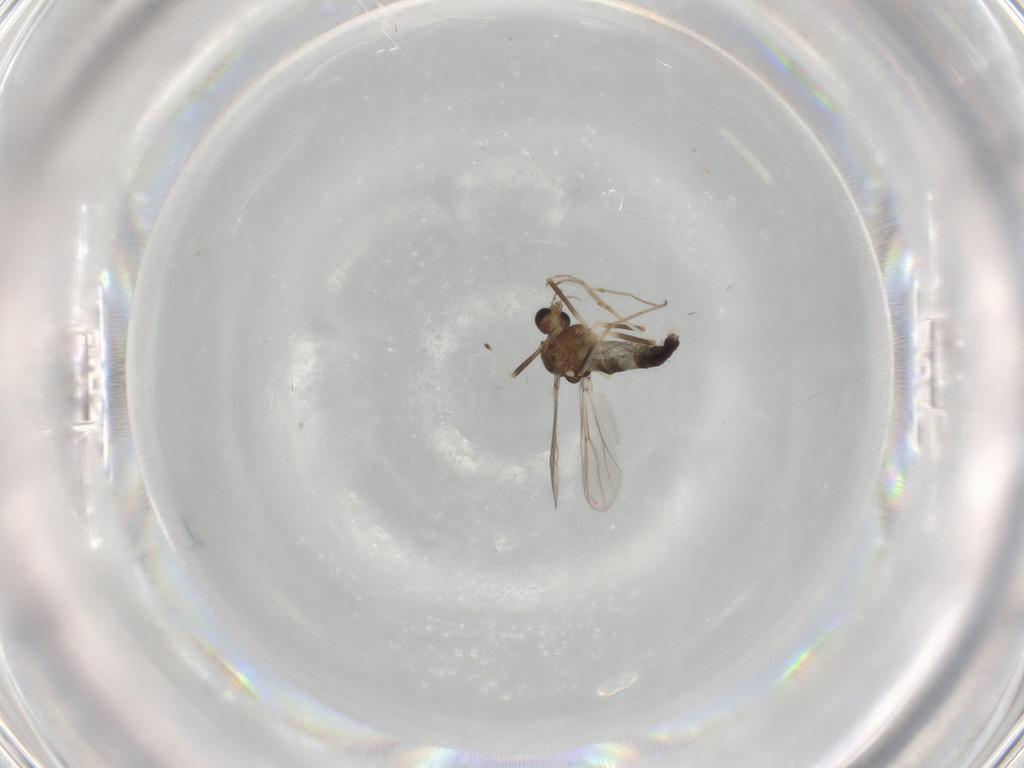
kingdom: Animalia
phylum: Arthropoda
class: Insecta
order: Diptera
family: Chironomidae
